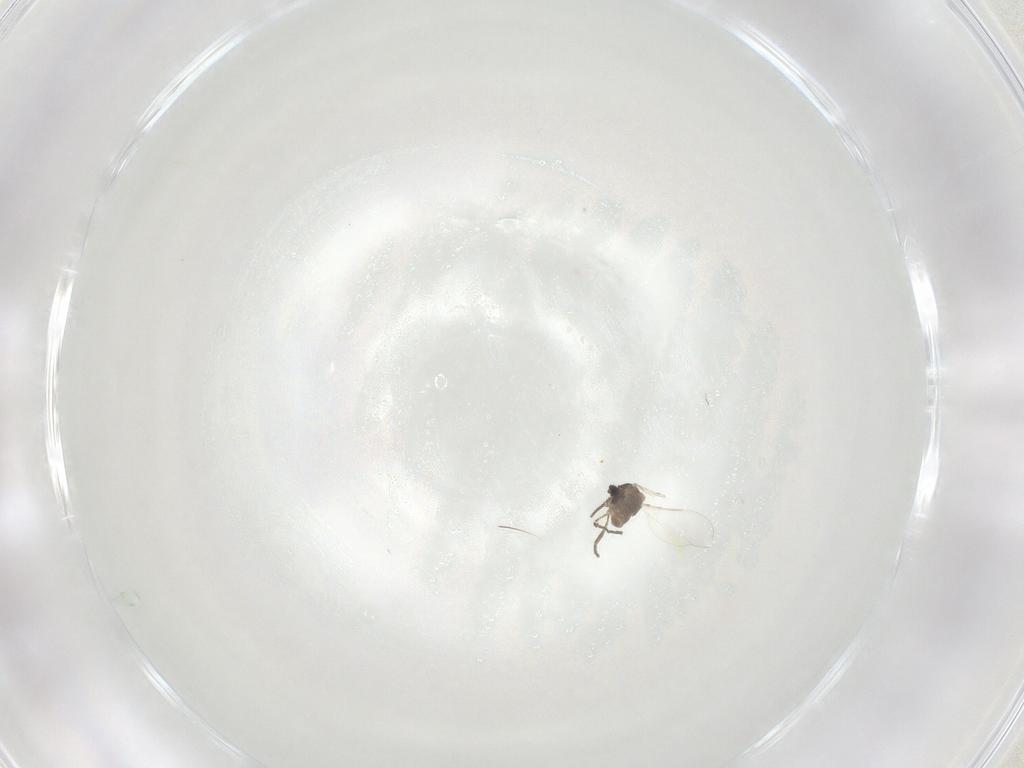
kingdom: Animalia
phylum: Arthropoda
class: Insecta
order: Diptera
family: Cecidomyiidae
